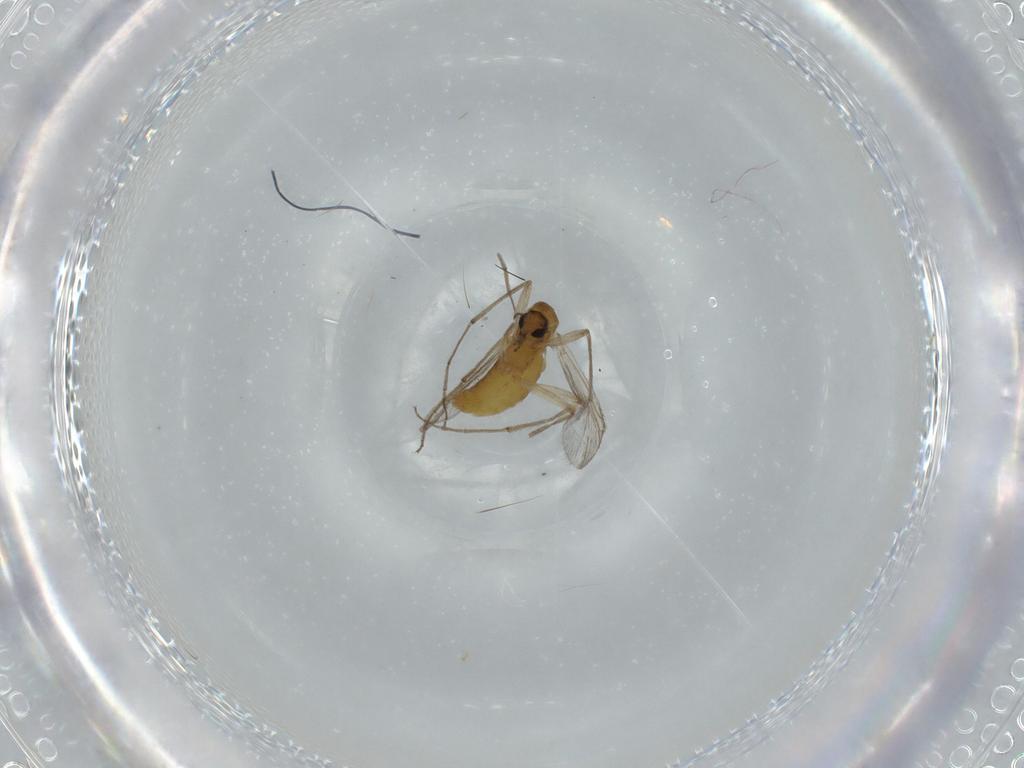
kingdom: Animalia
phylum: Arthropoda
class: Insecta
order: Diptera
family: Chironomidae
